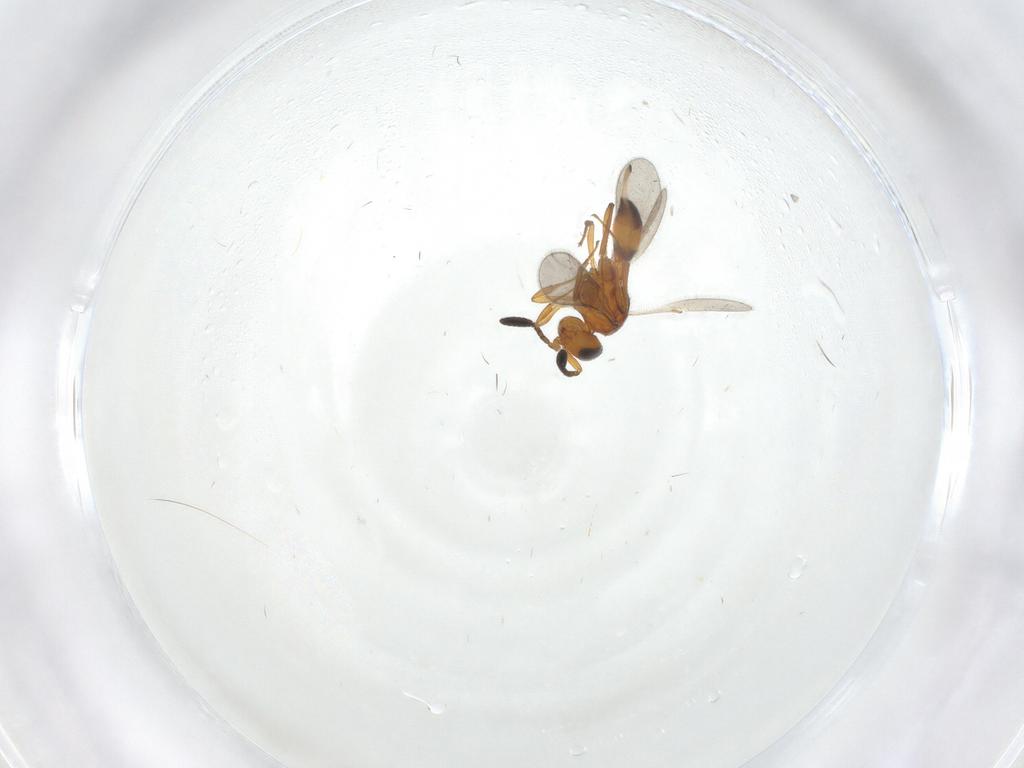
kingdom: Animalia
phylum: Arthropoda
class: Insecta
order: Hymenoptera
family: Scelionidae
